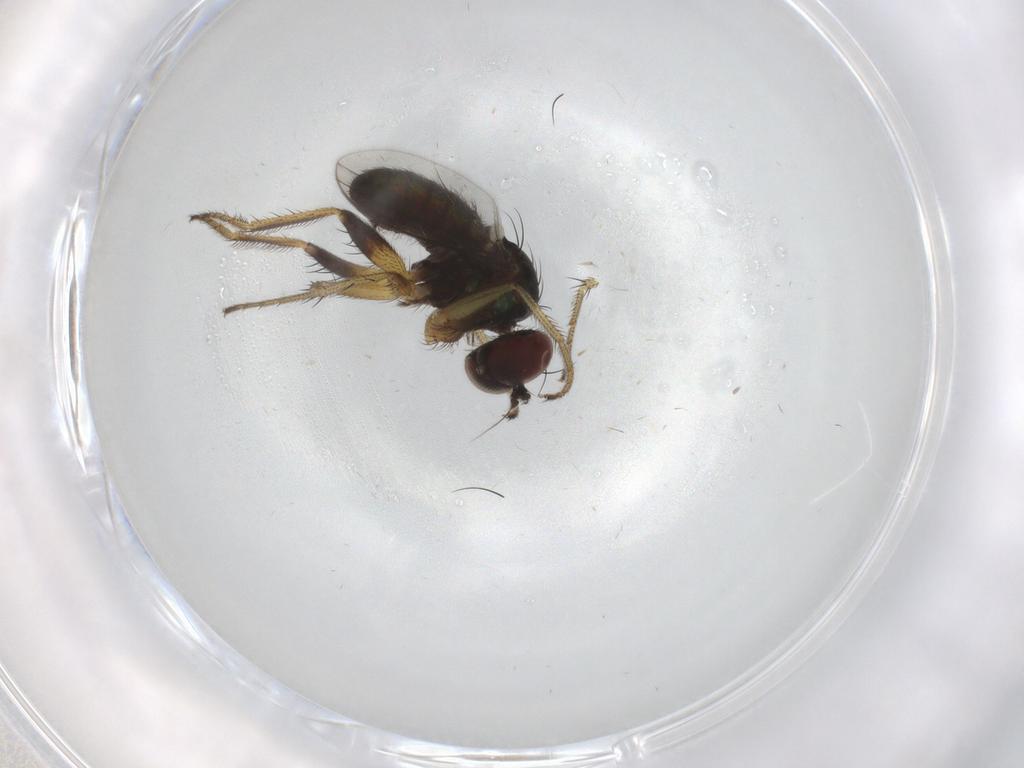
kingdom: Animalia
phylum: Arthropoda
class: Insecta
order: Diptera
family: Dolichopodidae
